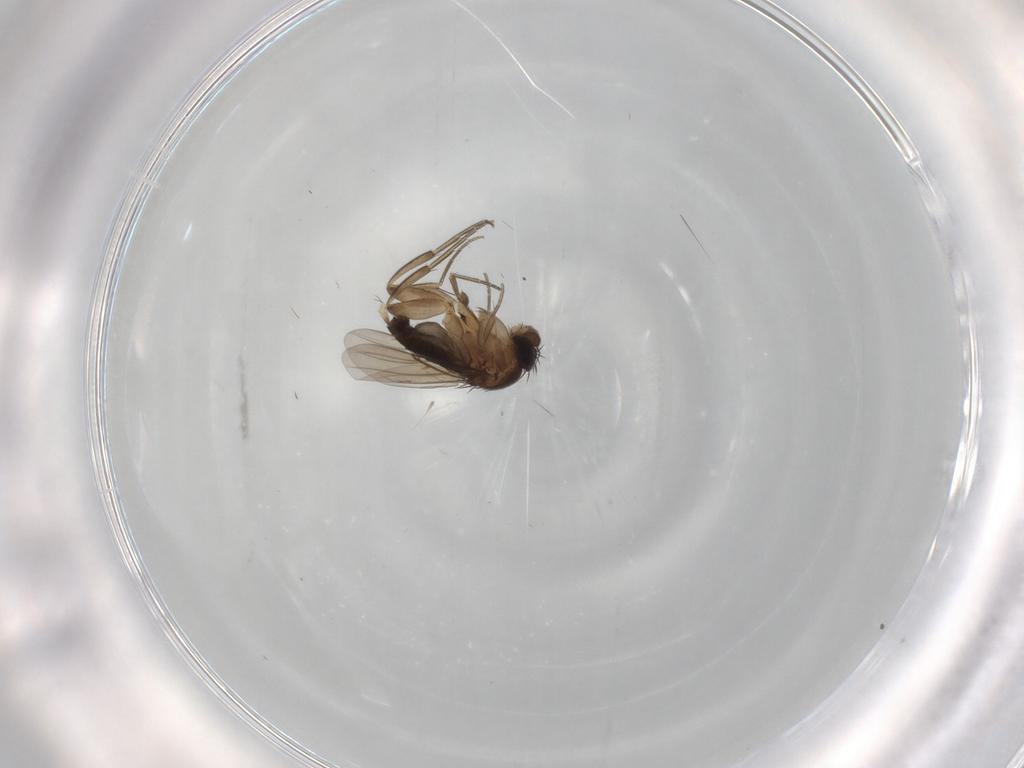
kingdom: Animalia
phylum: Arthropoda
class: Insecta
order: Diptera
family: Phoridae
